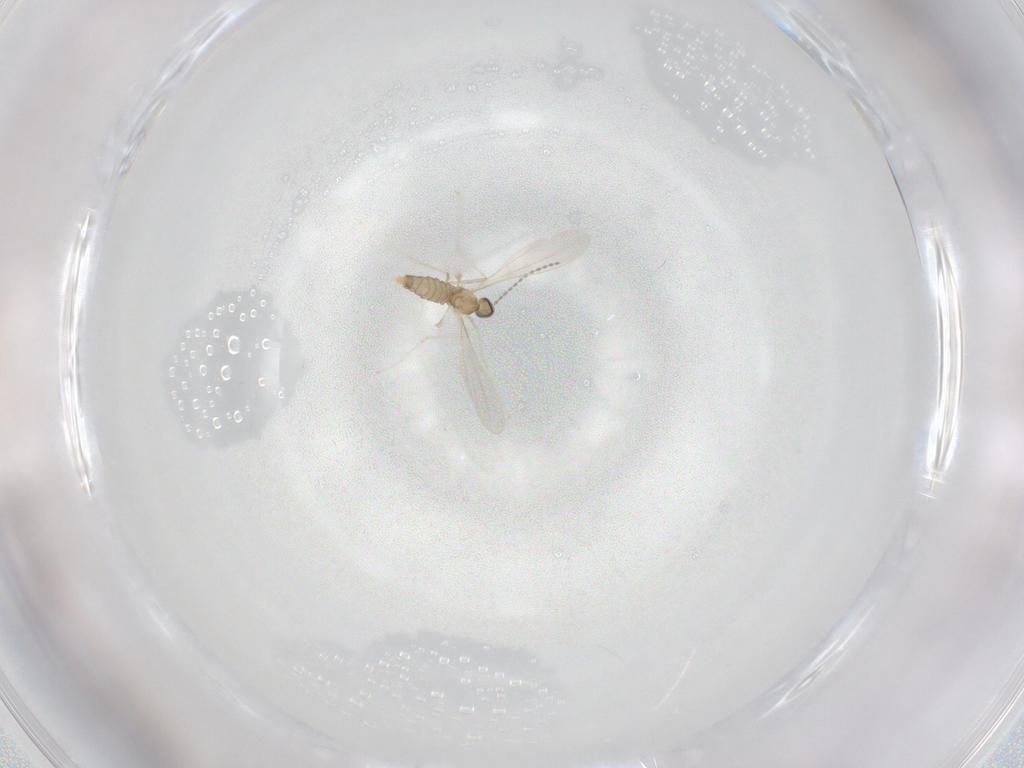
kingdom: Animalia
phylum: Arthropoda
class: Insecta
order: Diptera
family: Cecidomyiidae
